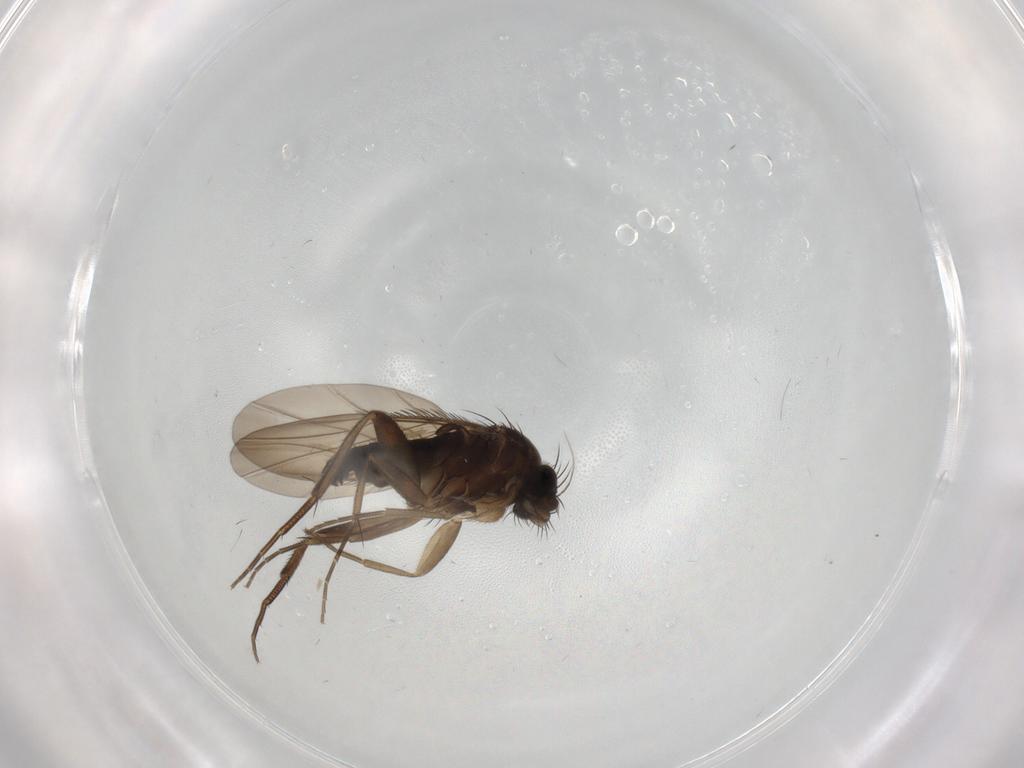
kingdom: Animalia
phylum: Arthropoda
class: Insecta
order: Diptera
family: Phoridae
